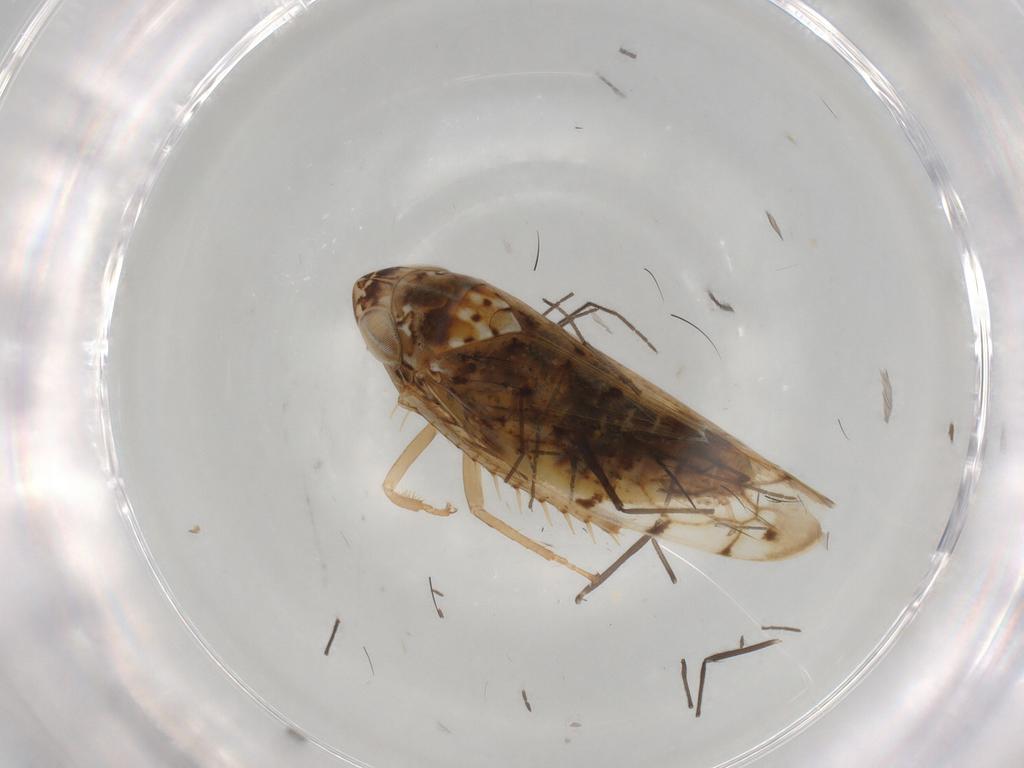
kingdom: Animalia
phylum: Arthropoda
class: Insecta
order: Hemiptera
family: Cicadellidae
